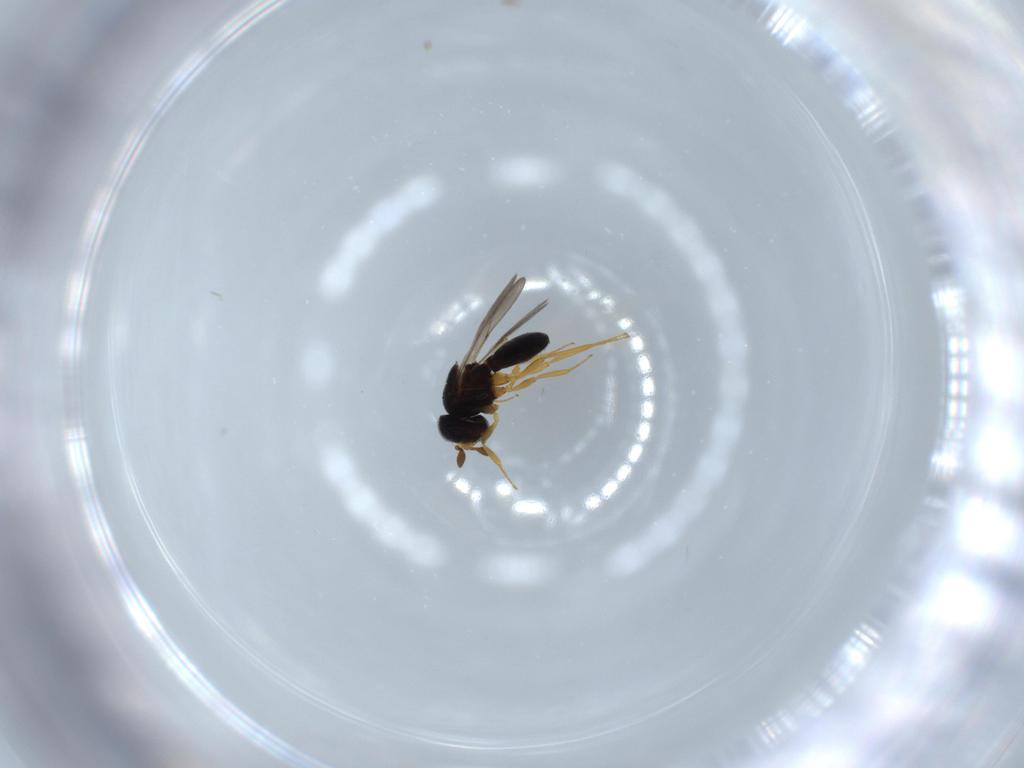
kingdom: Animalia
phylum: Arthropoda
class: Insecta
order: Hymenoptera
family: Scelionidae
